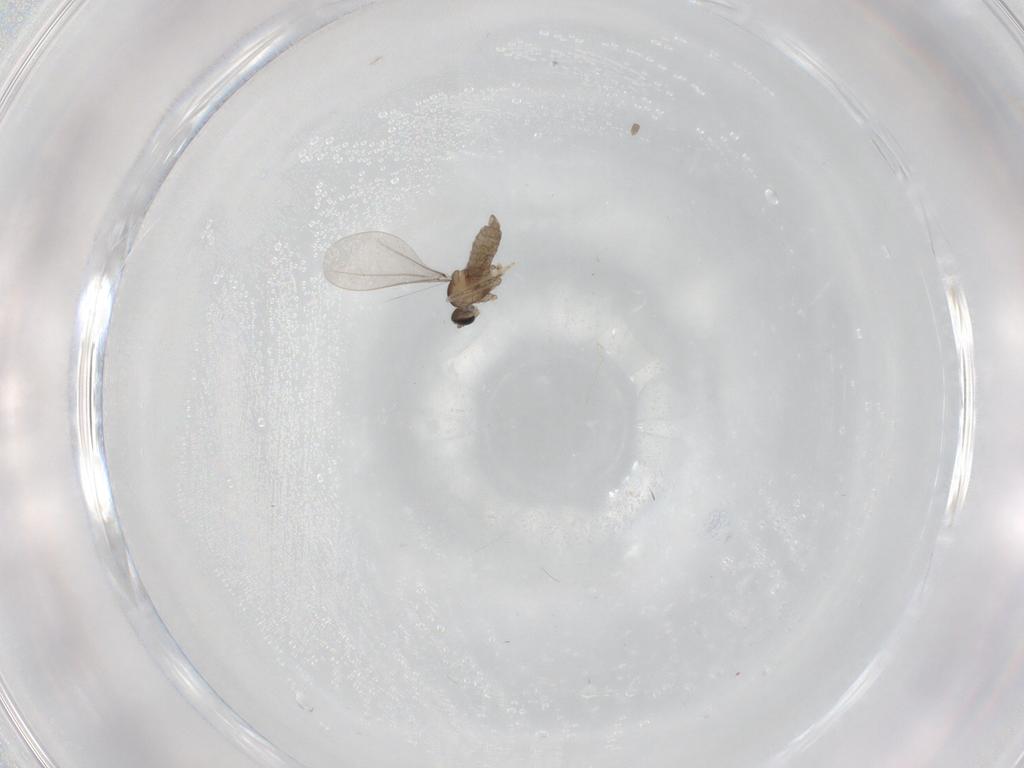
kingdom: Animalia
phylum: Arthropoda
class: Insecta
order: Diptera
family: Chironomidae
